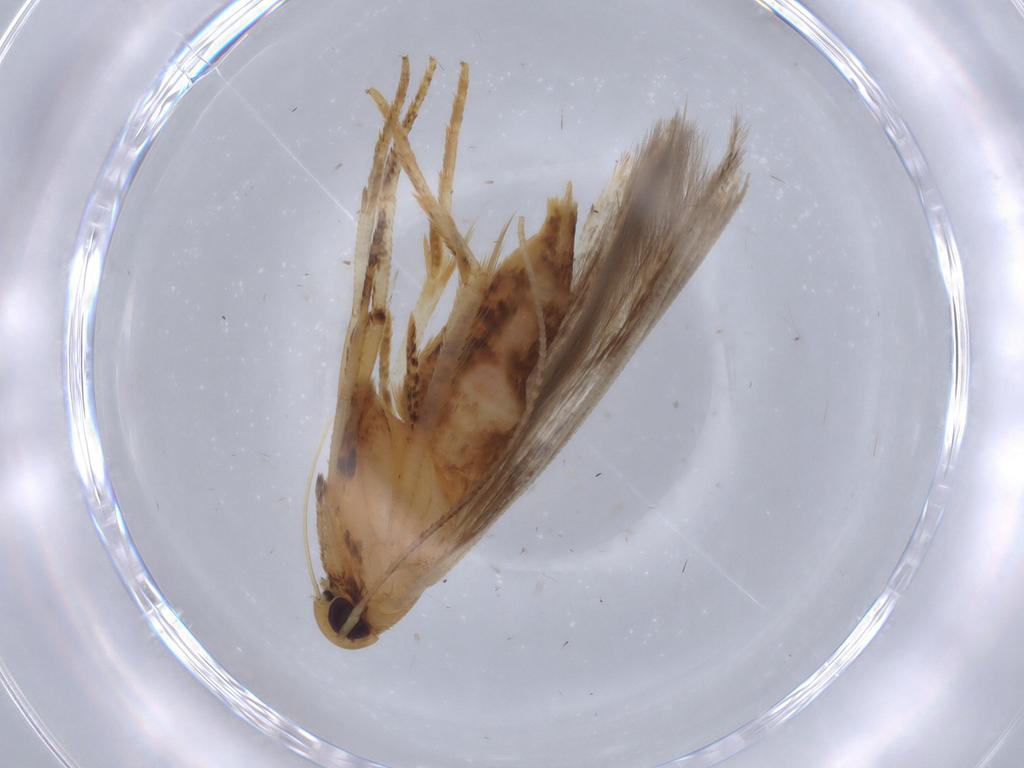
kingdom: Animalia
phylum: Arthropoda
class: Insecta
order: Lepidoptera
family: Cosmopterigidae
